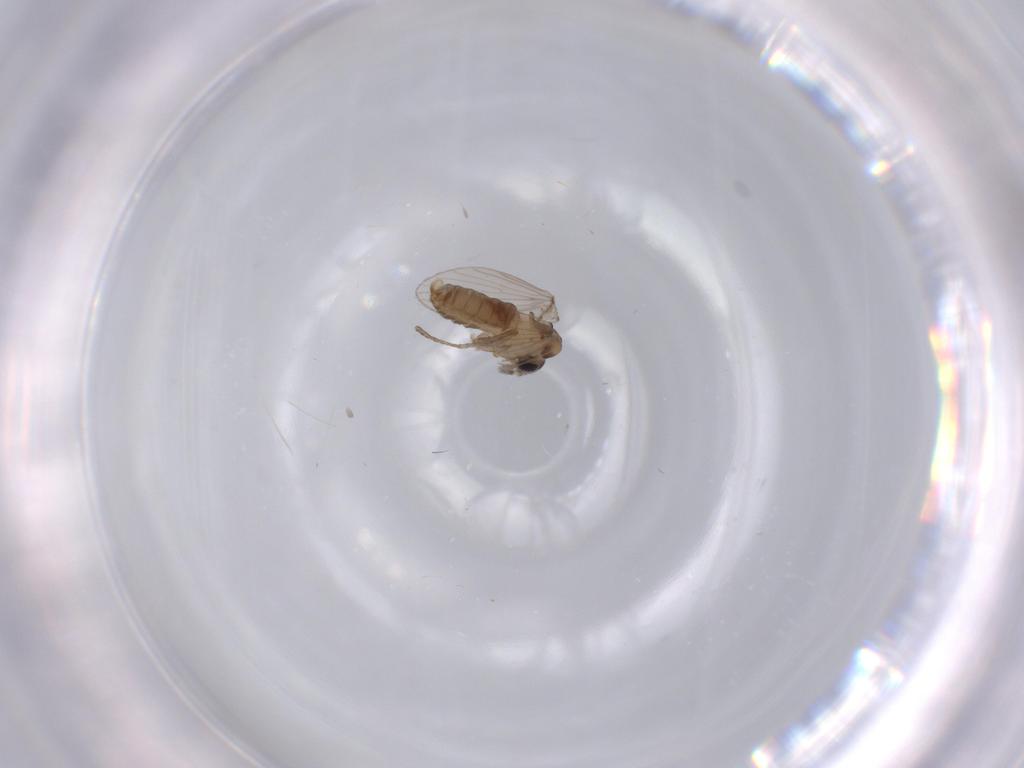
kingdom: Animalia
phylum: Arthropoda
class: Insecta
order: Diptera
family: Psychodidae
